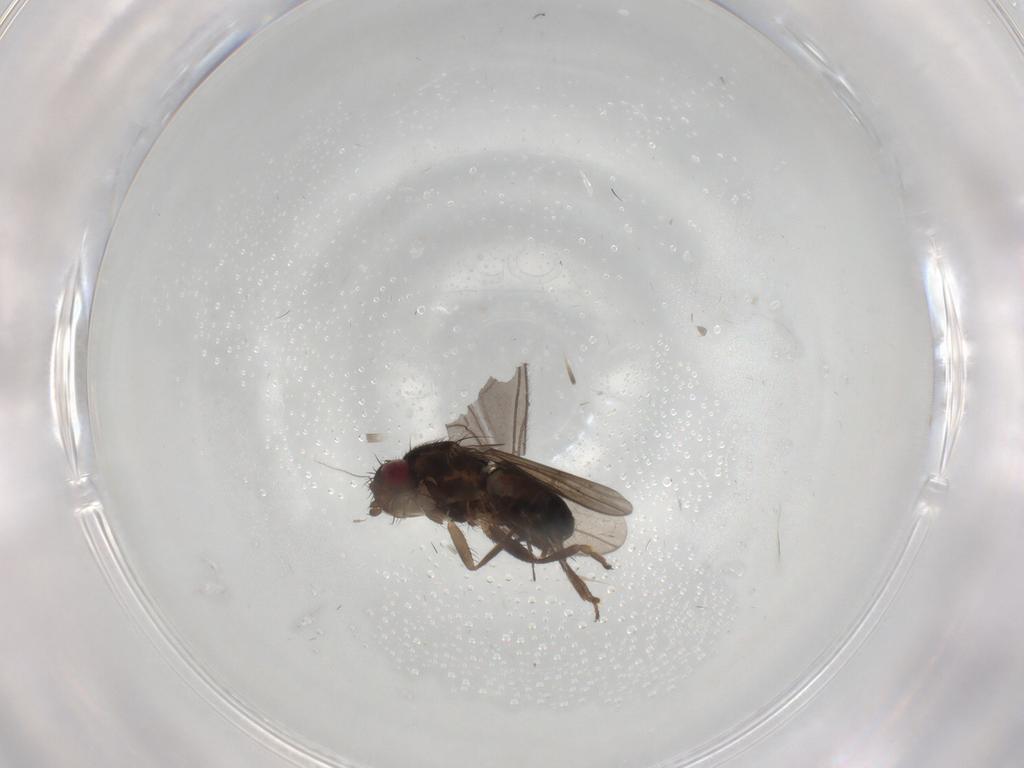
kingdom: Animalia
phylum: Arthropoda
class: Insecta
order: Diptera
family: Sciaridae
